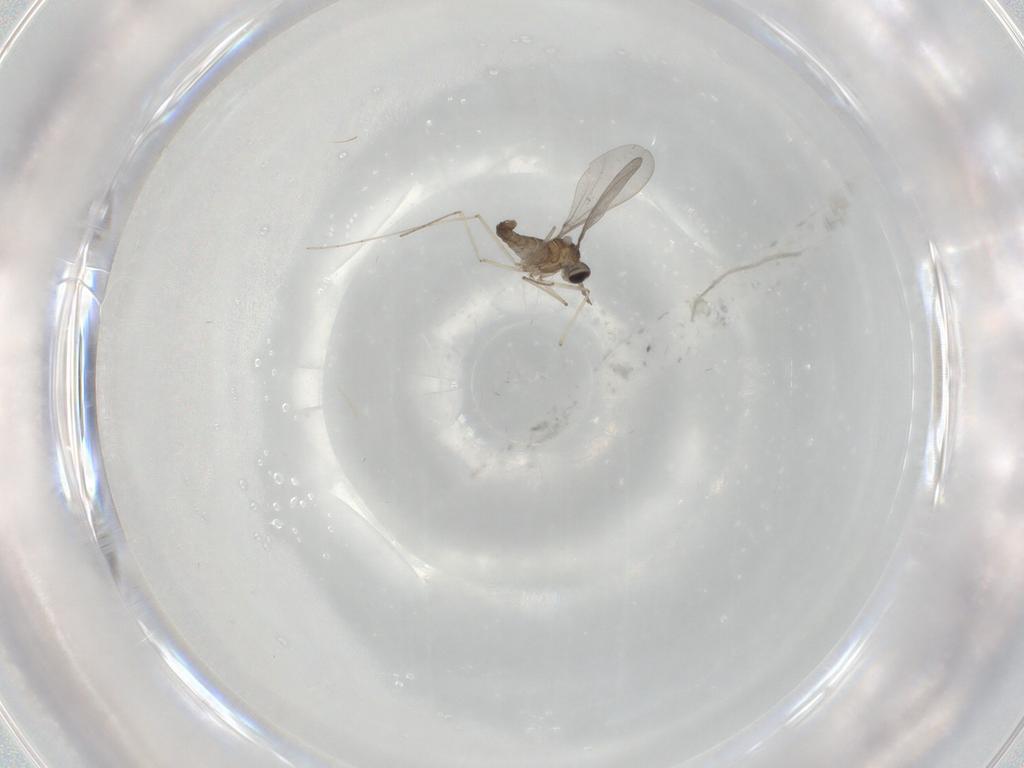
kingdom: Animalia
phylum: Arthropoda
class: Insecta
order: Diptera
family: Cecidomyiidae
